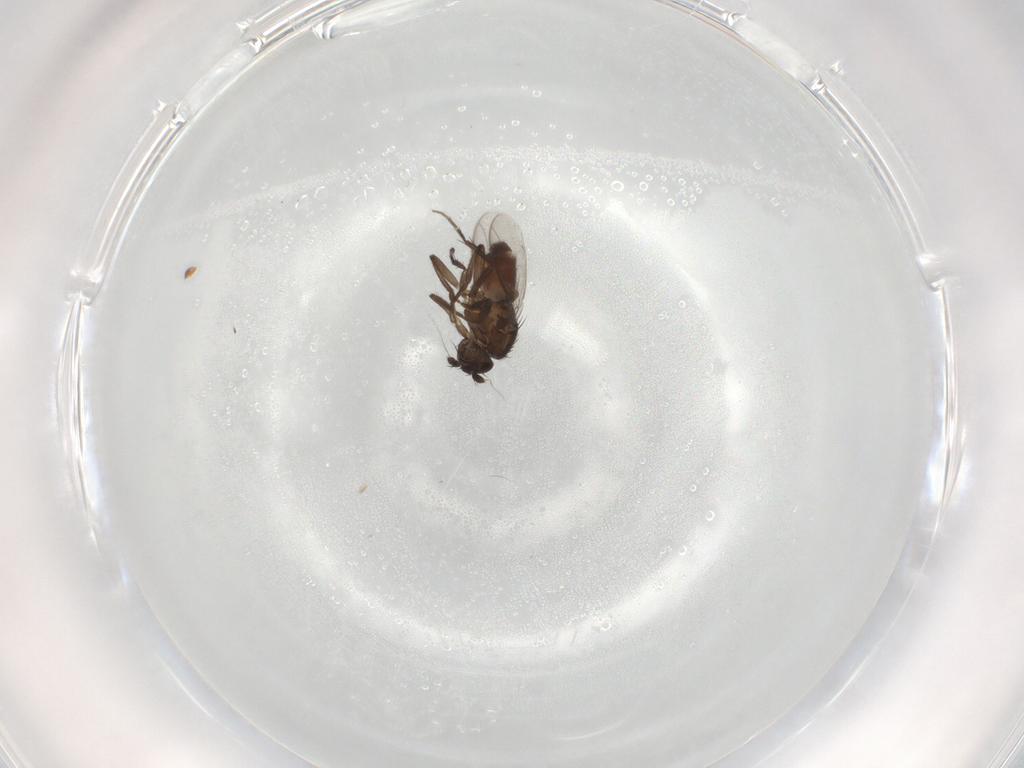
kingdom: Animalia
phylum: Arthropoda
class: Insecta
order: Diptera
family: Sphaeroceridae
